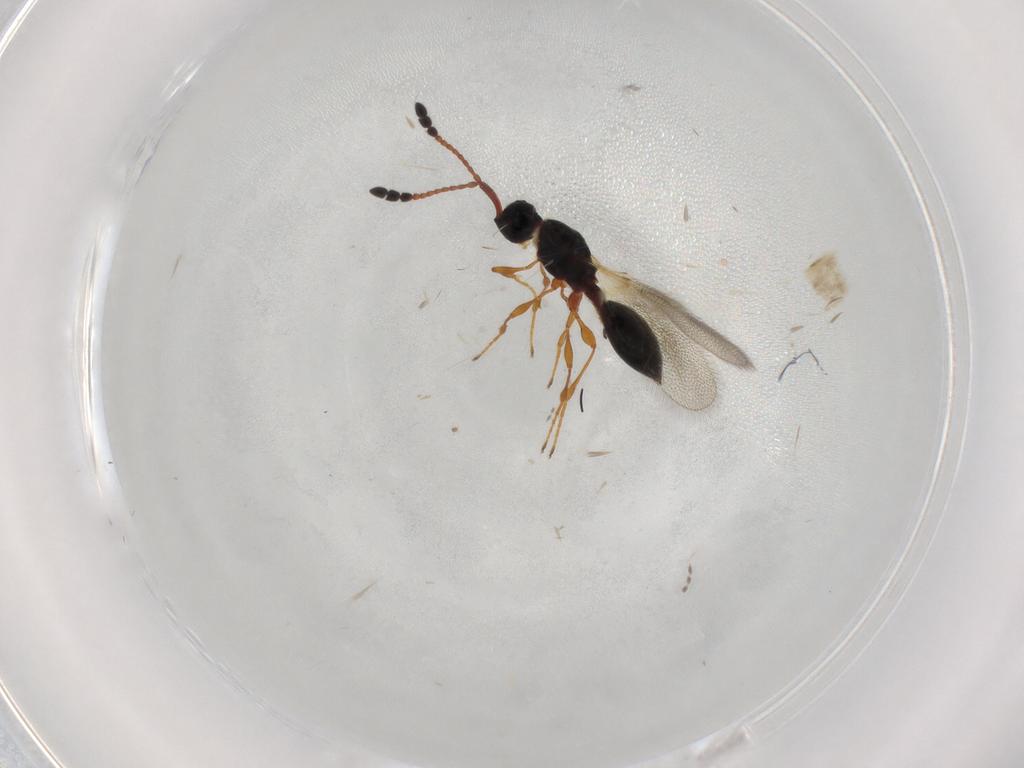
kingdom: Animalia
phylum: Arthropoda
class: Insecta
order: Hymenoptera
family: Diapriidae
